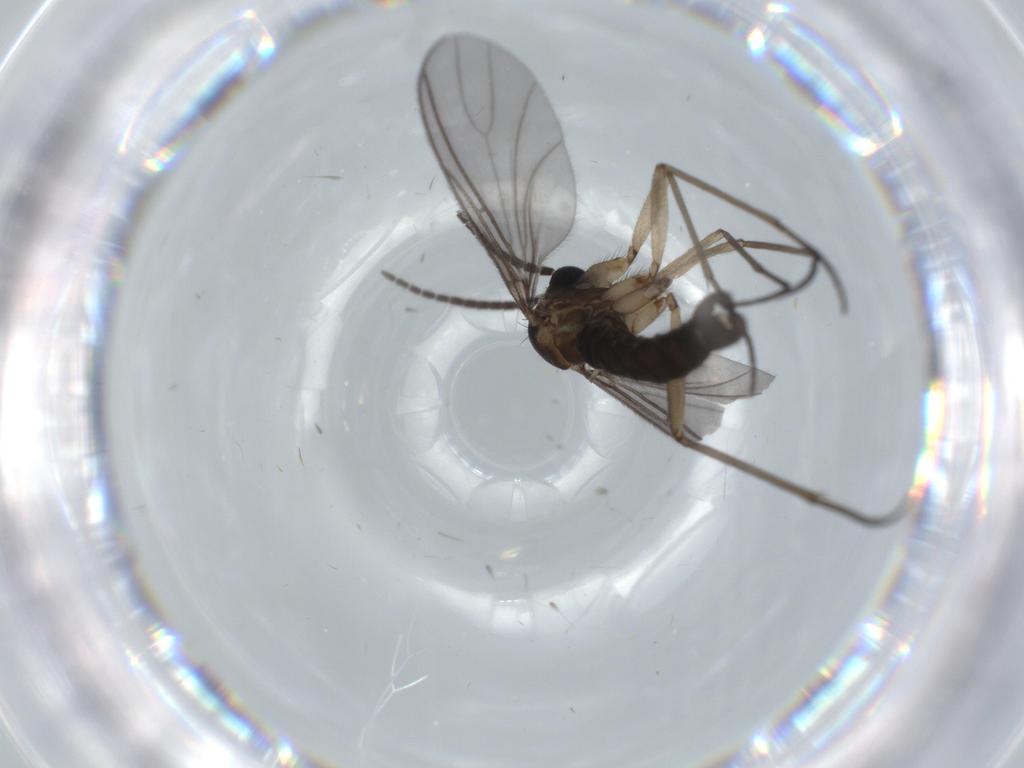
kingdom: Animalia
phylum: Arthropoda
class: Insecta
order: Diptera
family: Sciaridae
